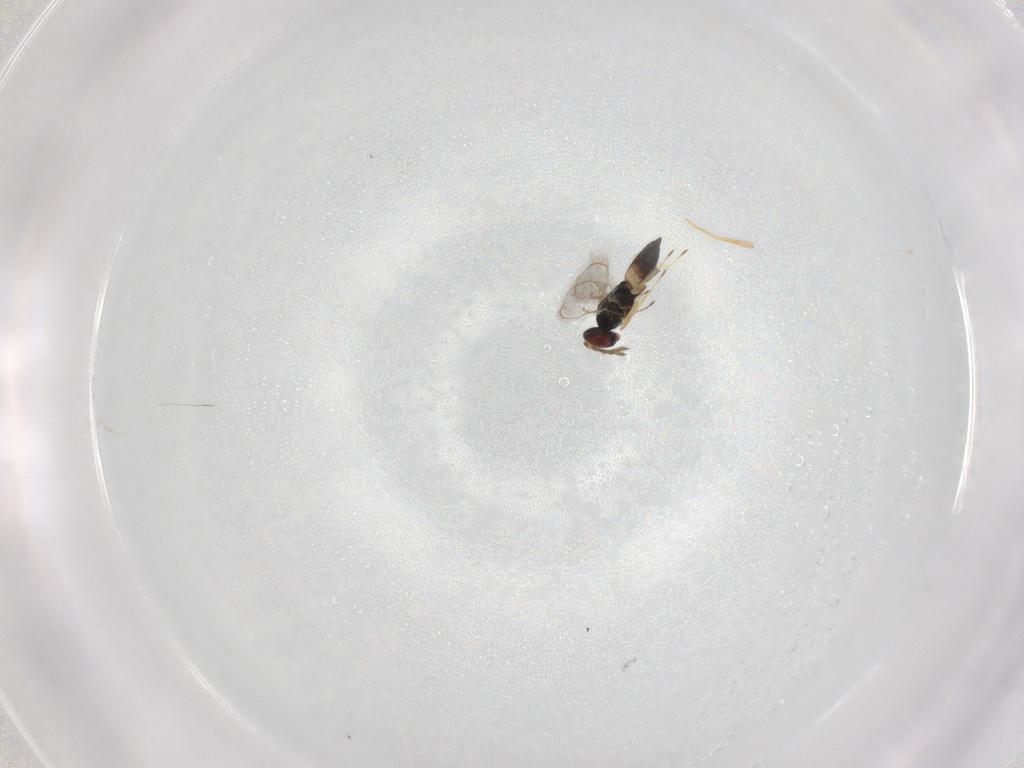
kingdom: Animalia
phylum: Arthropoda
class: Insecta
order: Hymenoptera
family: Eulophidae
